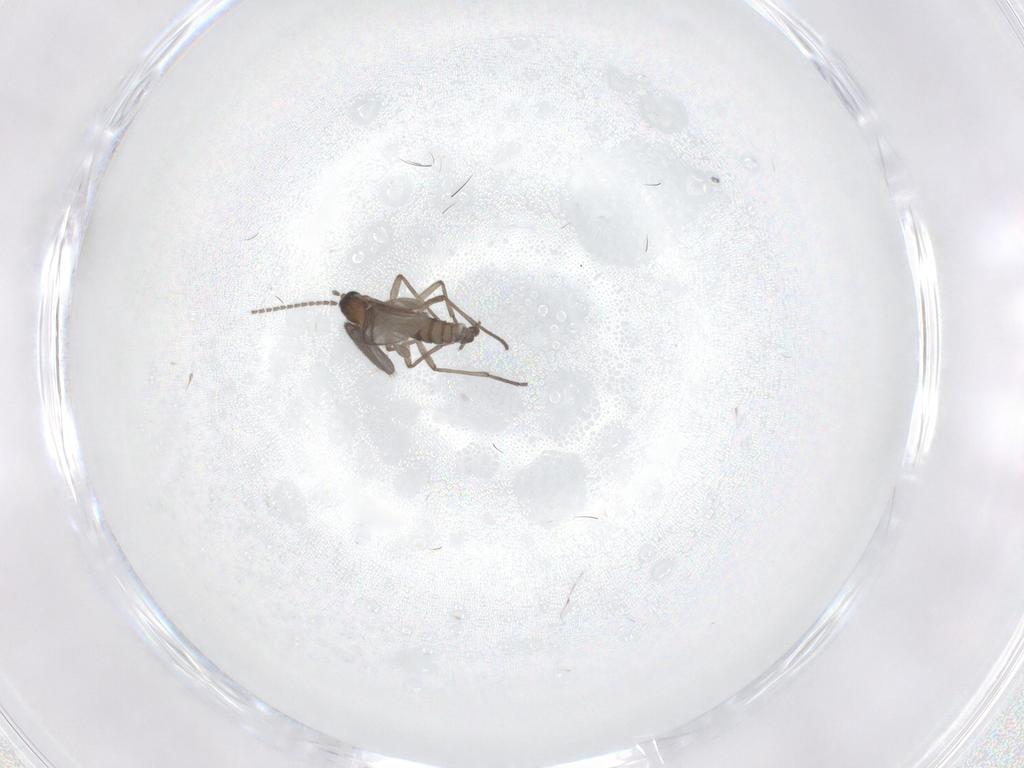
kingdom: Animalia
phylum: Arthropoda
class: Insecta
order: Diptera
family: Sciaridae
